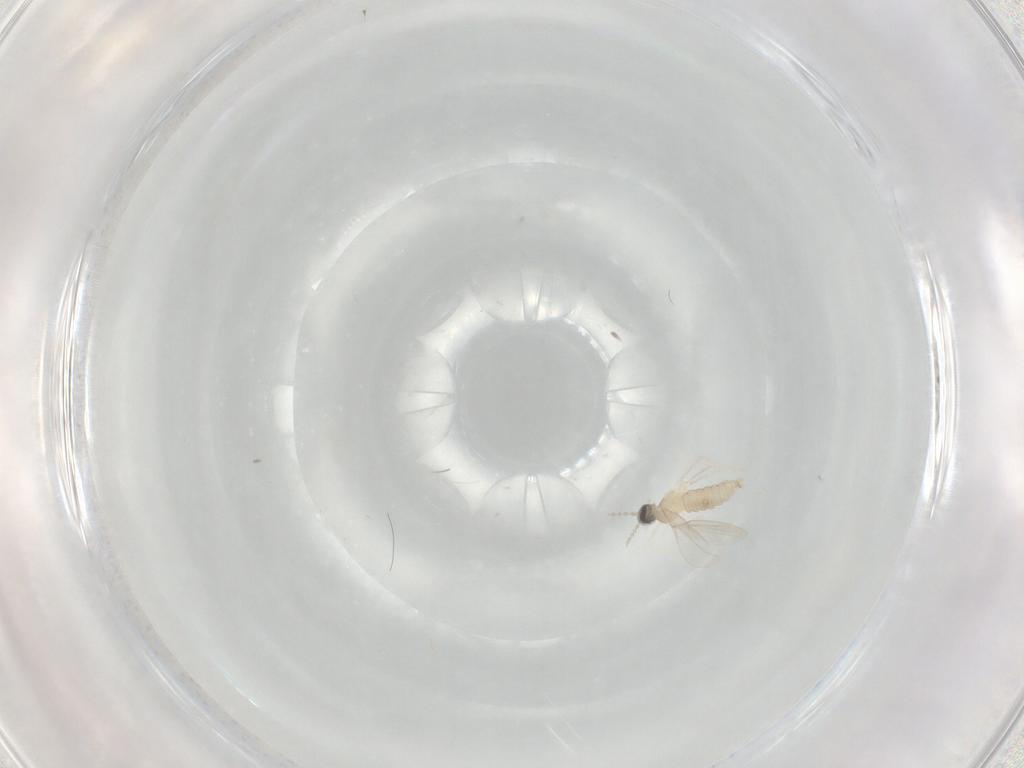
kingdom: Animalia
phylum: Arthropoda
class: Insecta
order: Diptera
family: Cecidomyiidae
